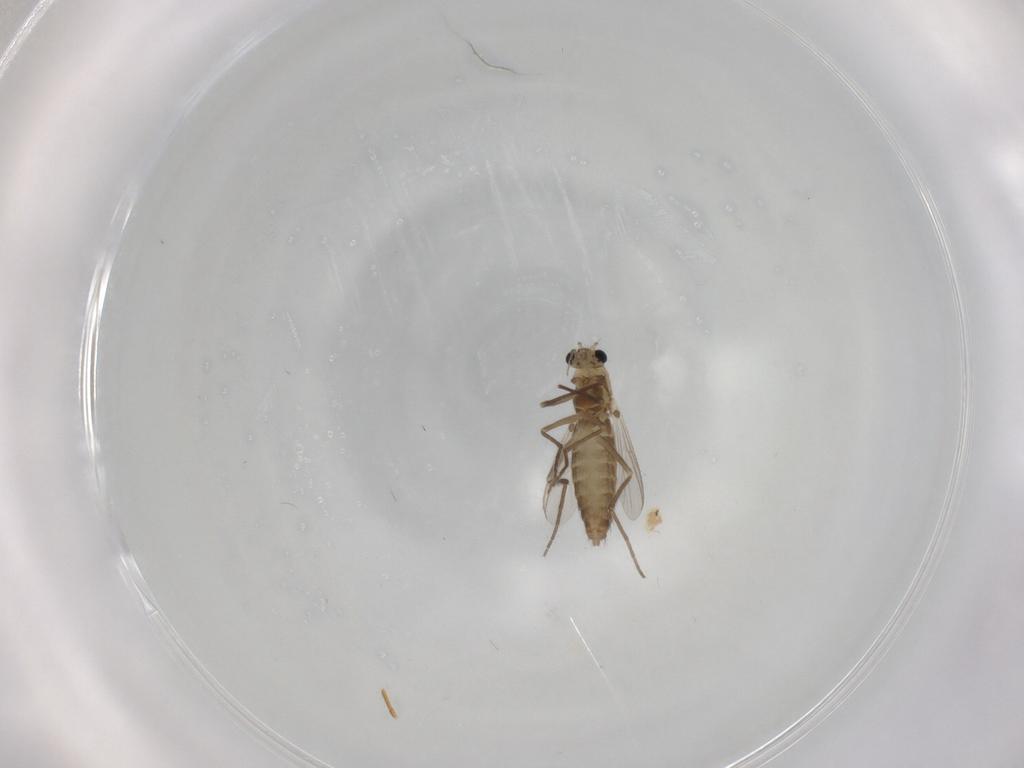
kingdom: Animalia
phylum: Arthropoda
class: Insecta
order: Diptera
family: Chironomidae
